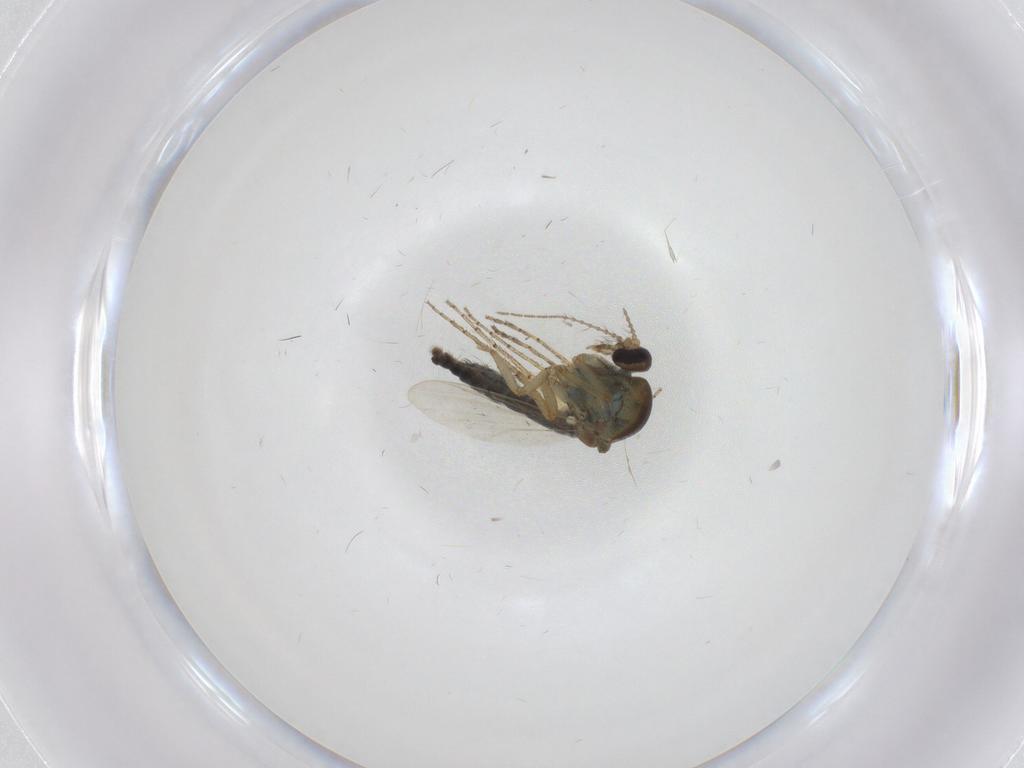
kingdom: Animalia
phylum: Arthropoda
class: Insecta
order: Diptera
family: Ceratopogonidae
